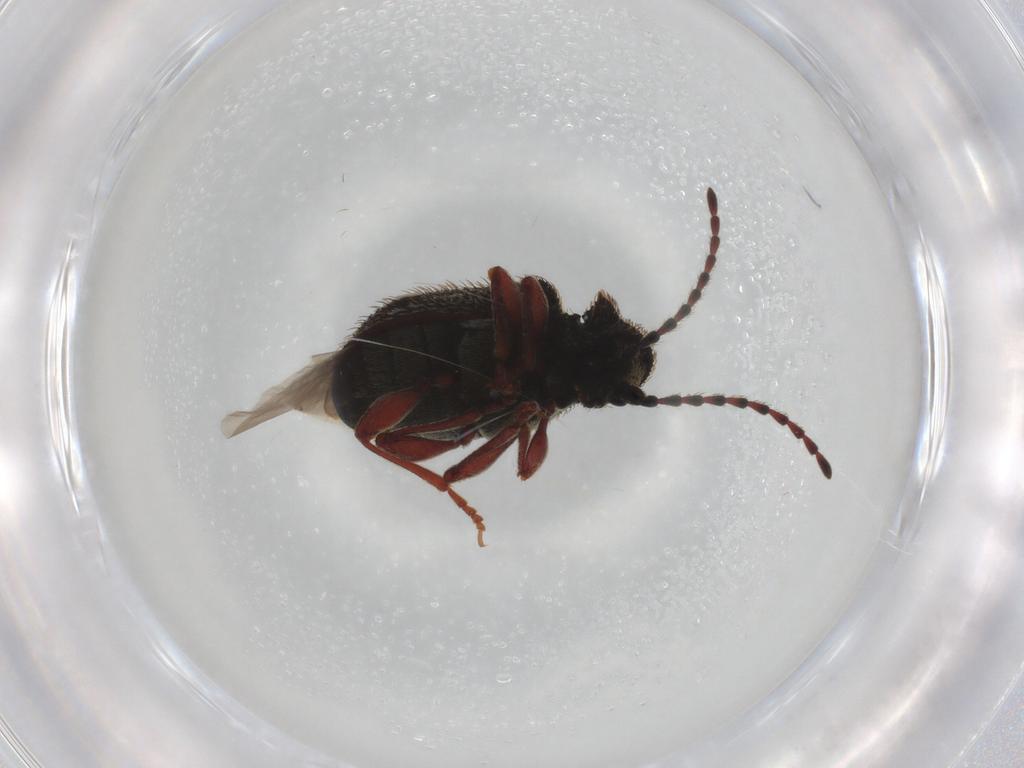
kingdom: Animalia
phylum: Arthropoda
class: Insecta
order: Coleoptera
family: Ptinidae
